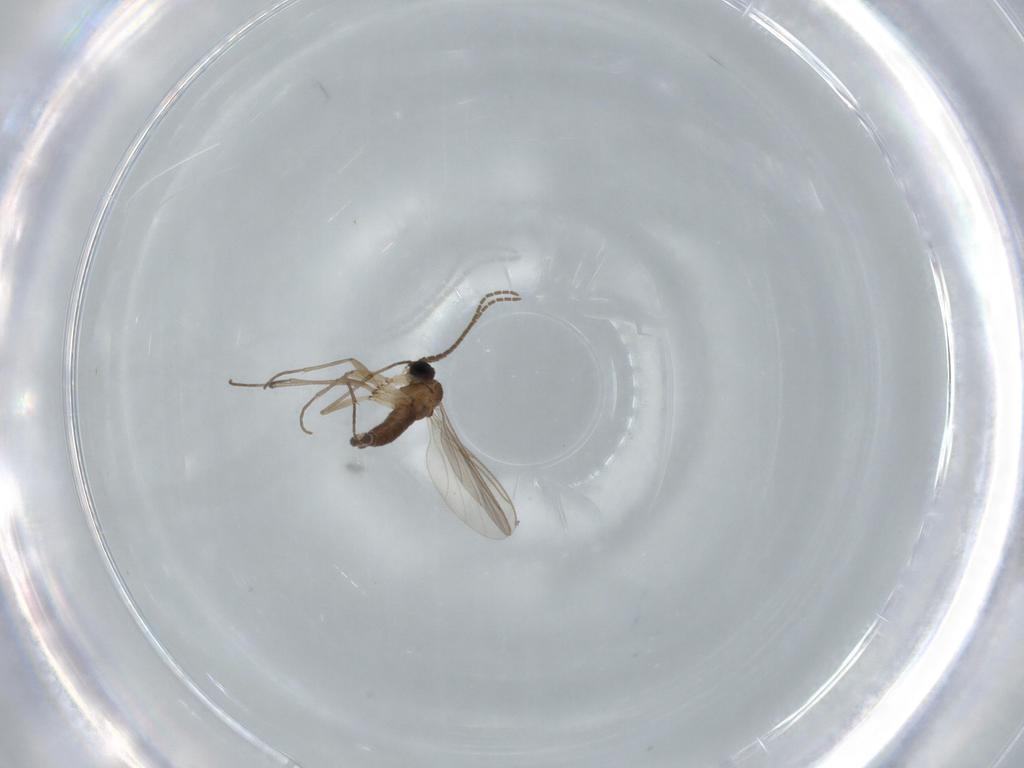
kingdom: Animalia
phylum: Arthropoda
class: Insecta
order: Diptera
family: Sciaridae
